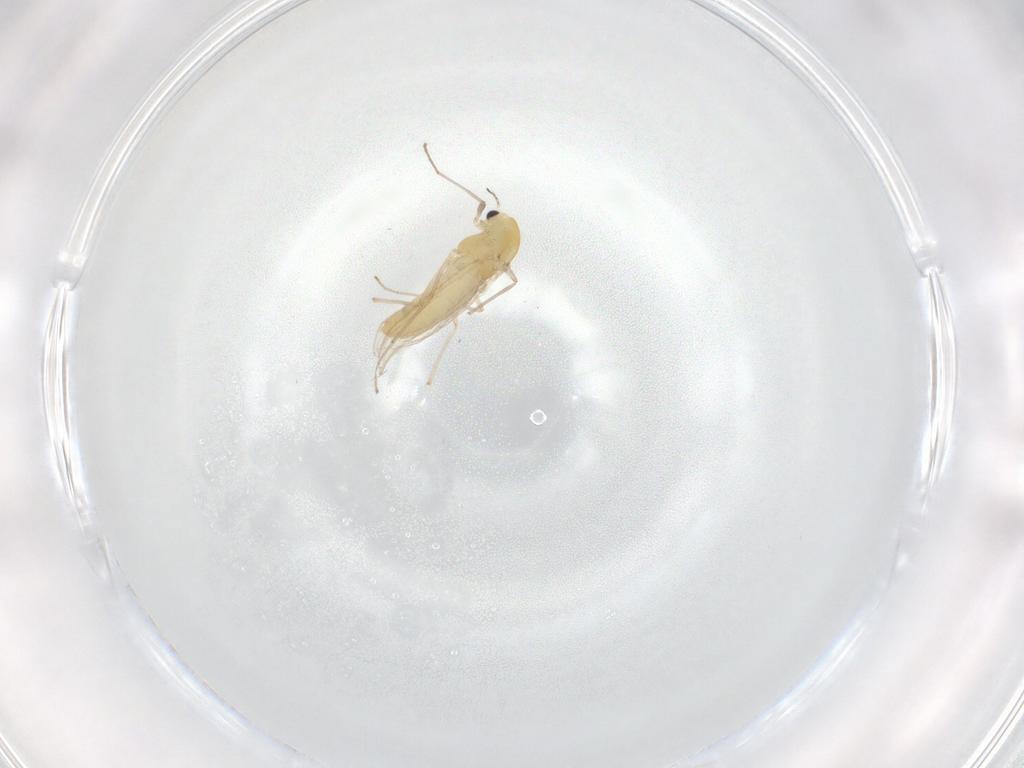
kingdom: Animalia
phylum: Arthropoda
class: Insecta
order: Diptera
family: Chironomidae
